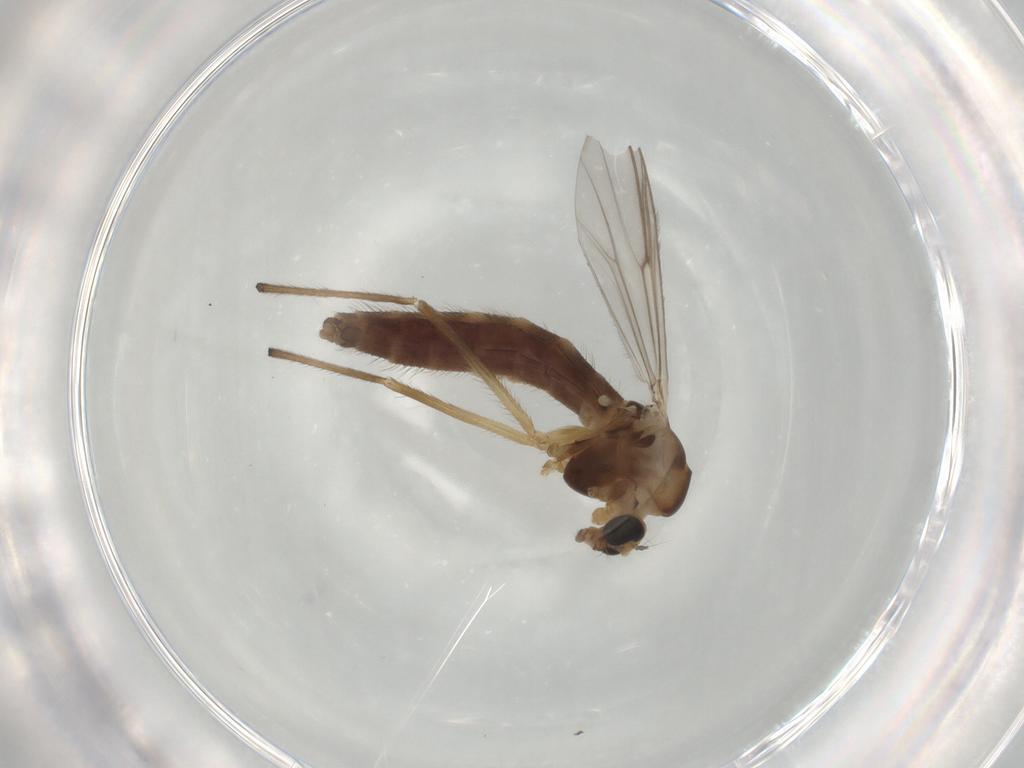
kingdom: Animalia
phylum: Arthropoda
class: Insecta
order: Diptera
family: Chironomidae
